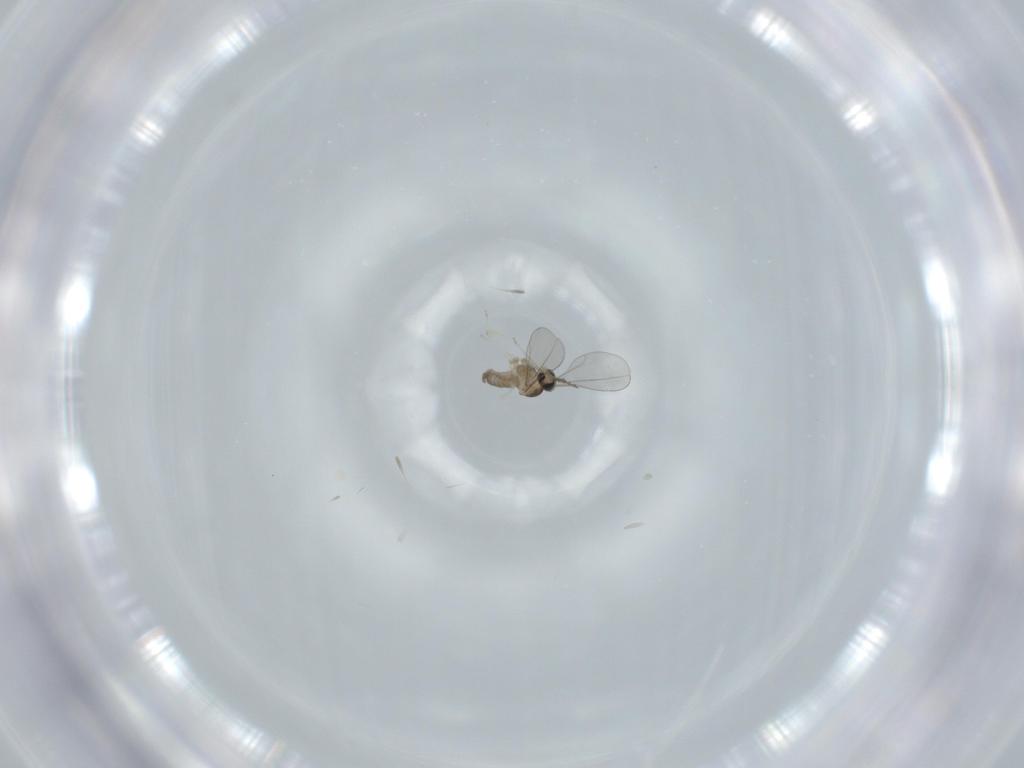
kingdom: Animalia
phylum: Arthropoda
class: Insecta
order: Diptera
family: Cecidomyiidae
